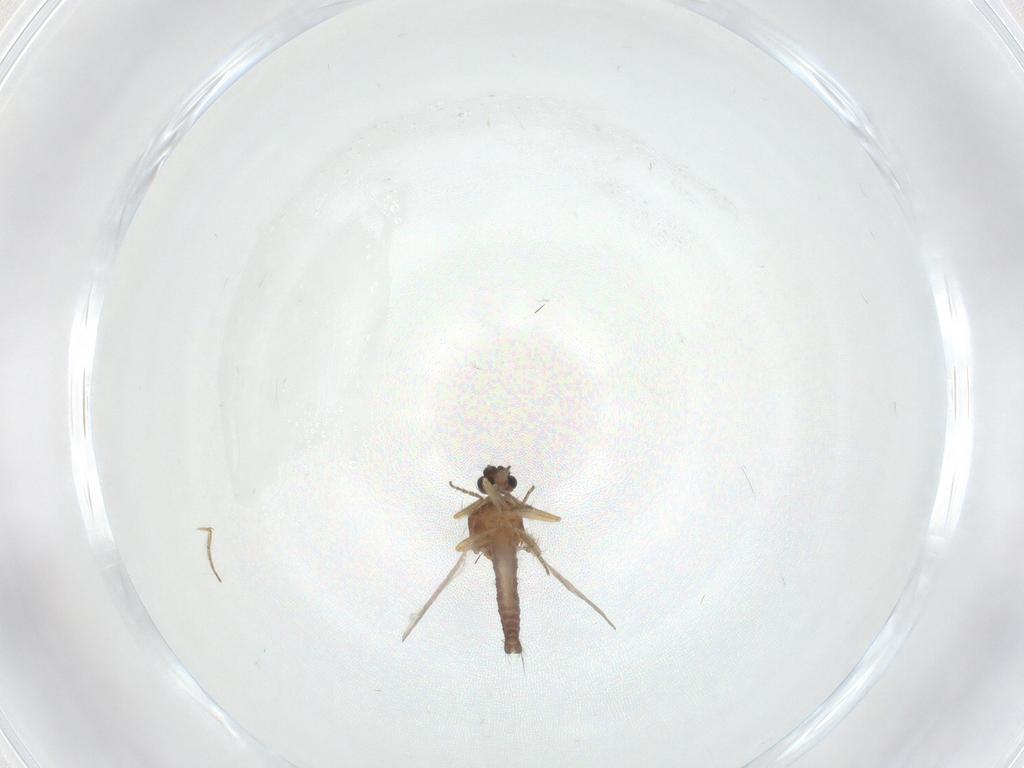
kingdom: Animalia
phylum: Arthropoda
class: Insecta
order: Diptera
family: Ceratopogonidae
